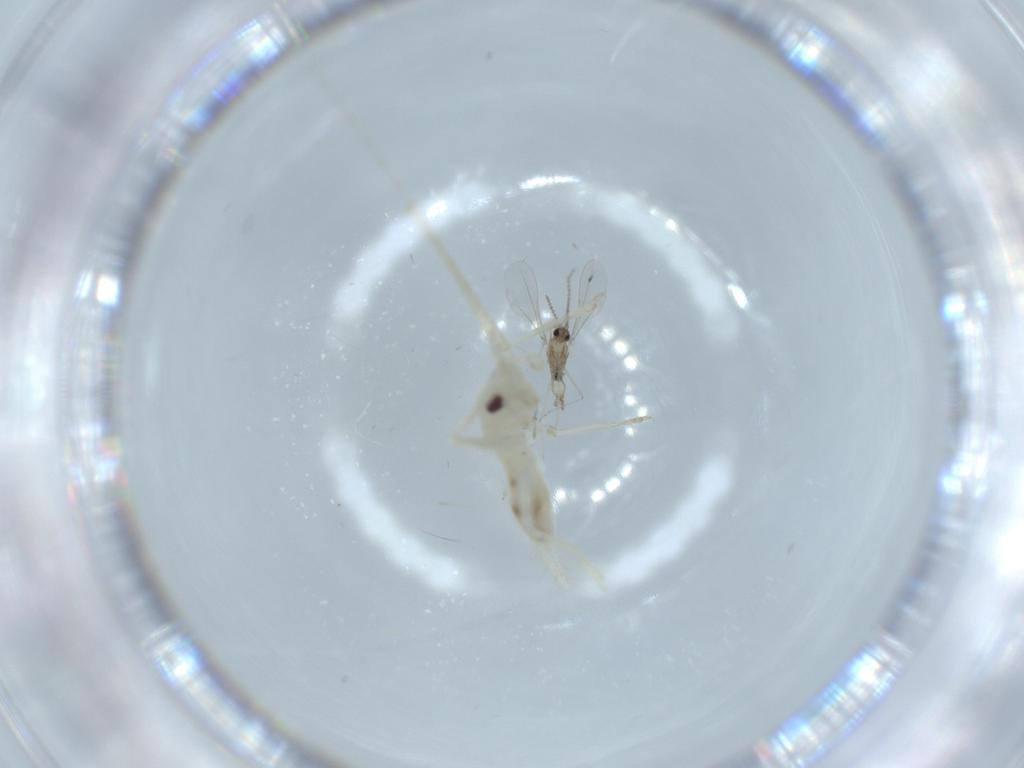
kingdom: Animalia
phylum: Arthropoda
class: Insecta
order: Orthoptera
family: Trigonidiidae
